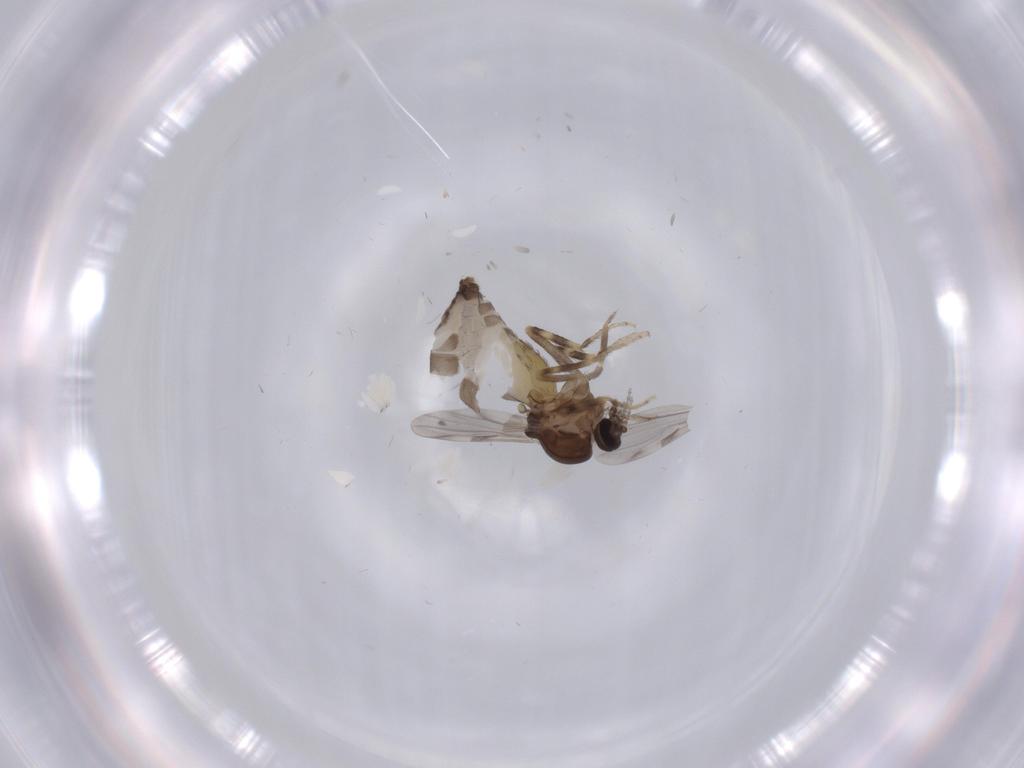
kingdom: Animalia
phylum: Arthropoda
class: Insecta
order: Diptera
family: Ceratopogonidae
